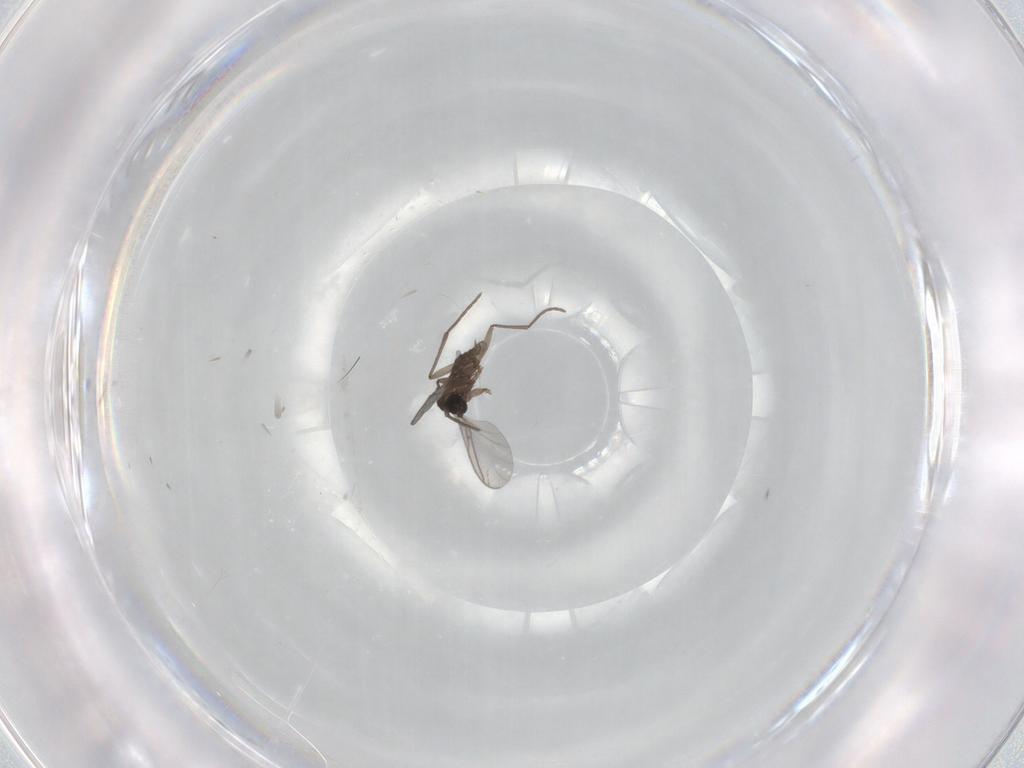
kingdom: Animalia
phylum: Arthropoda
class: Insecta
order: Diptera
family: Sciaridae
